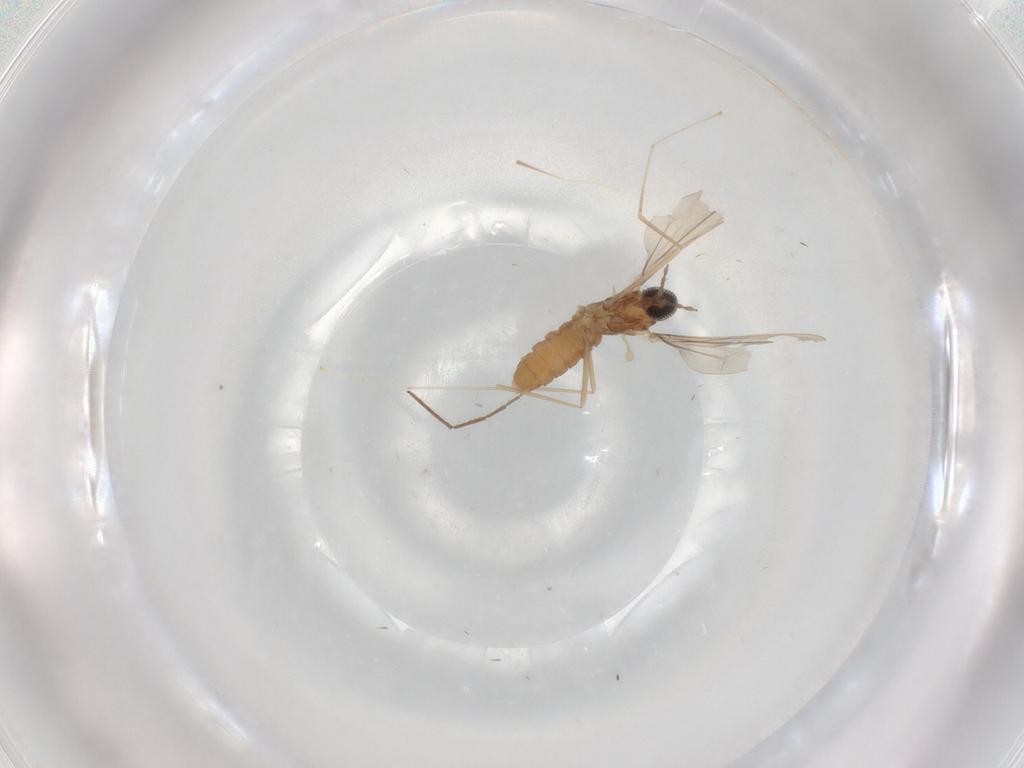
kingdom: Animalia
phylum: Arthropoda
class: Insecta
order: Diptera
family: Cecidomyiidae
